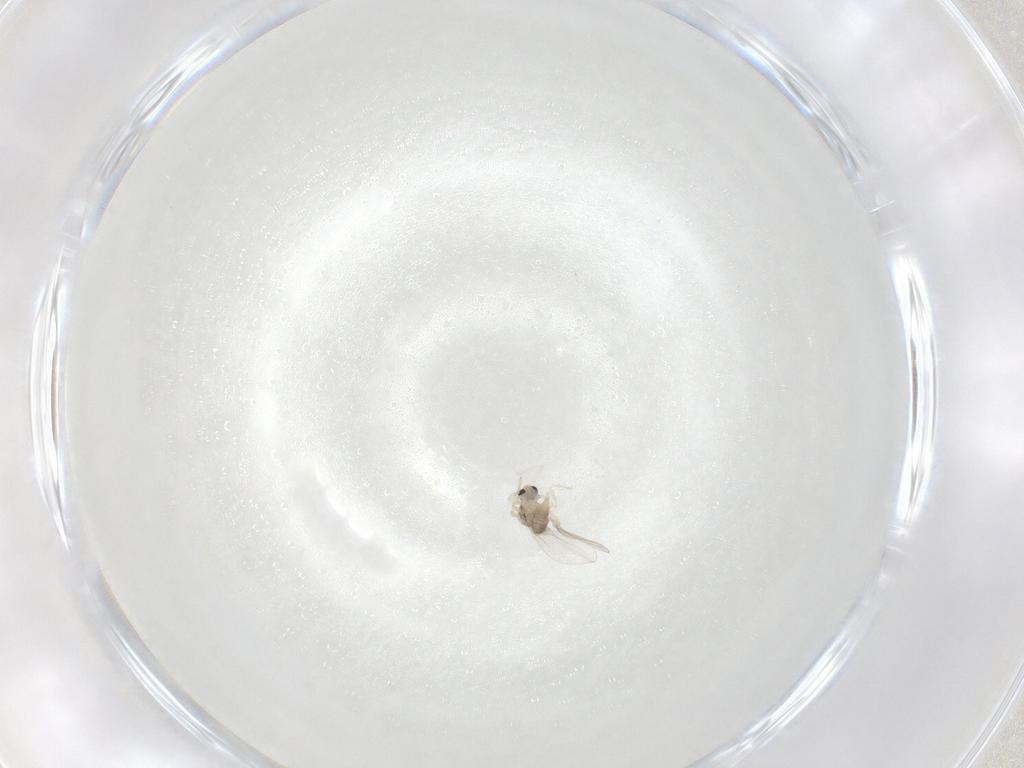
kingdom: Animalia
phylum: Arthropoda
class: Insecta
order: Diptera
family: Cecidomyiidae
